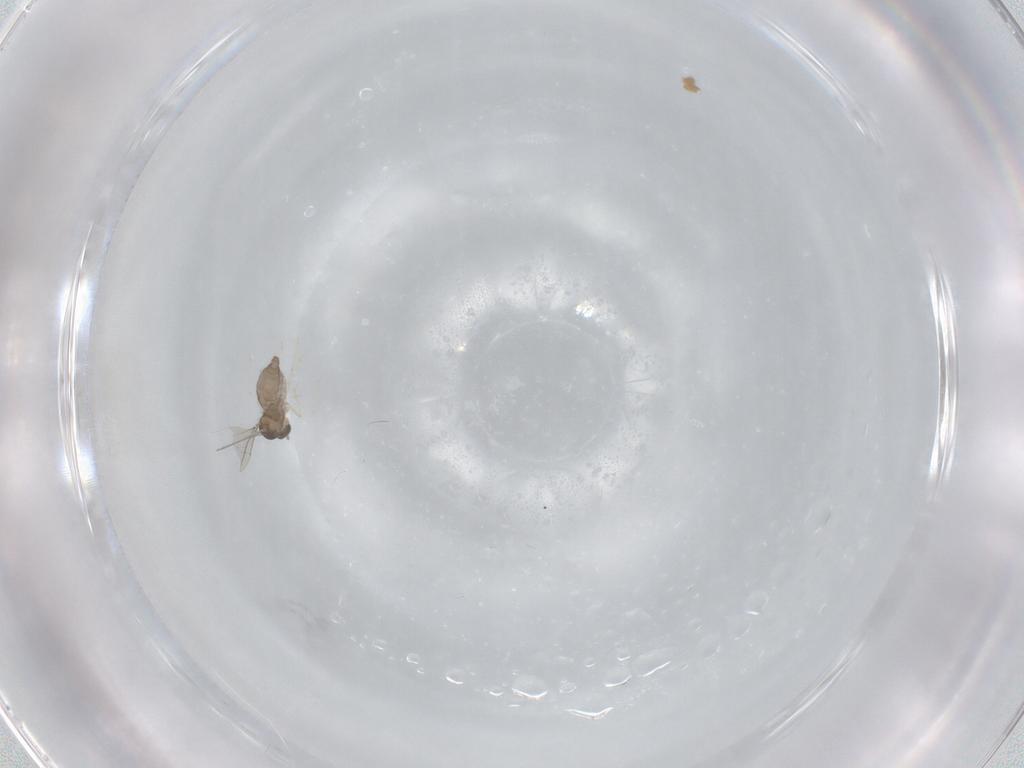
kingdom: Animalia
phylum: Arthropoda
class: Insecta
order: Diptera
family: Sphaeroceridae
